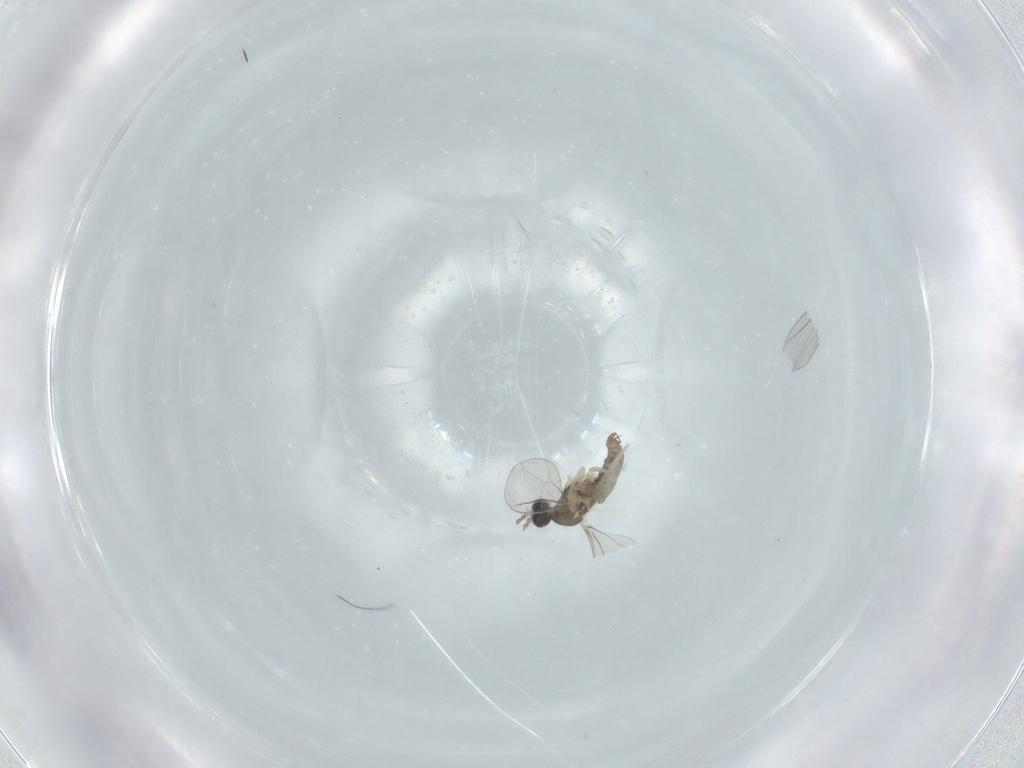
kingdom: Animalia
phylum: Arthropoda
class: Insecta
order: Diptera
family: Cecidomyiidae
